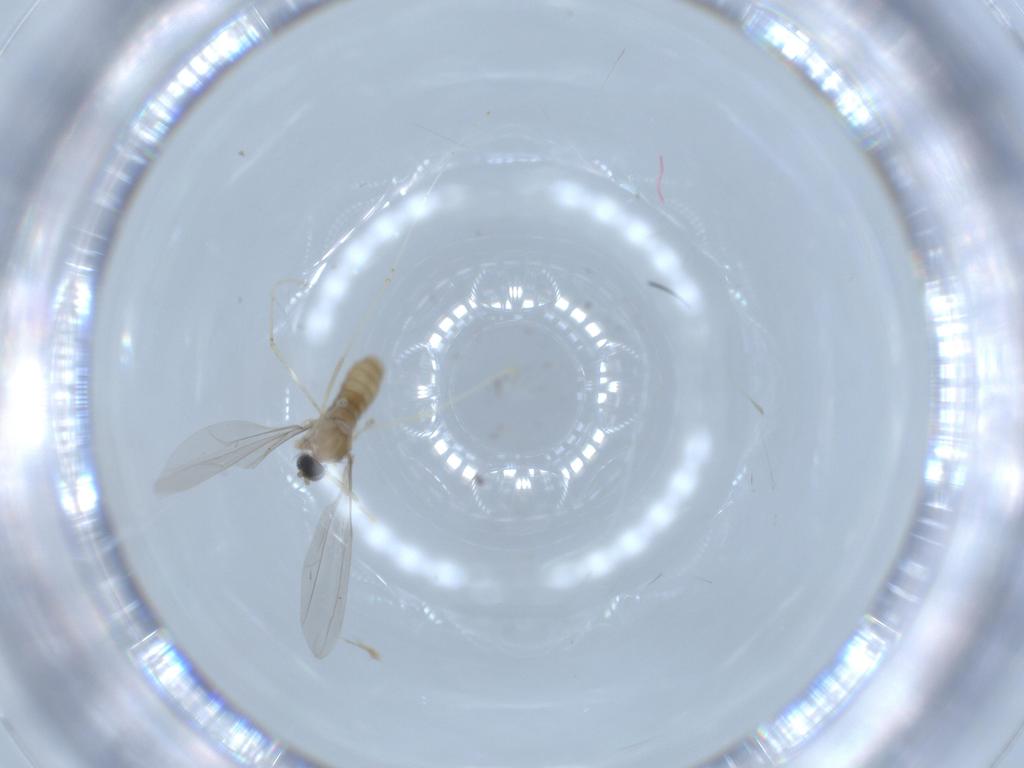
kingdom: Animalia
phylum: Arthropoda
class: Insecta
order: Diptera
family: Cecidomyiidae
